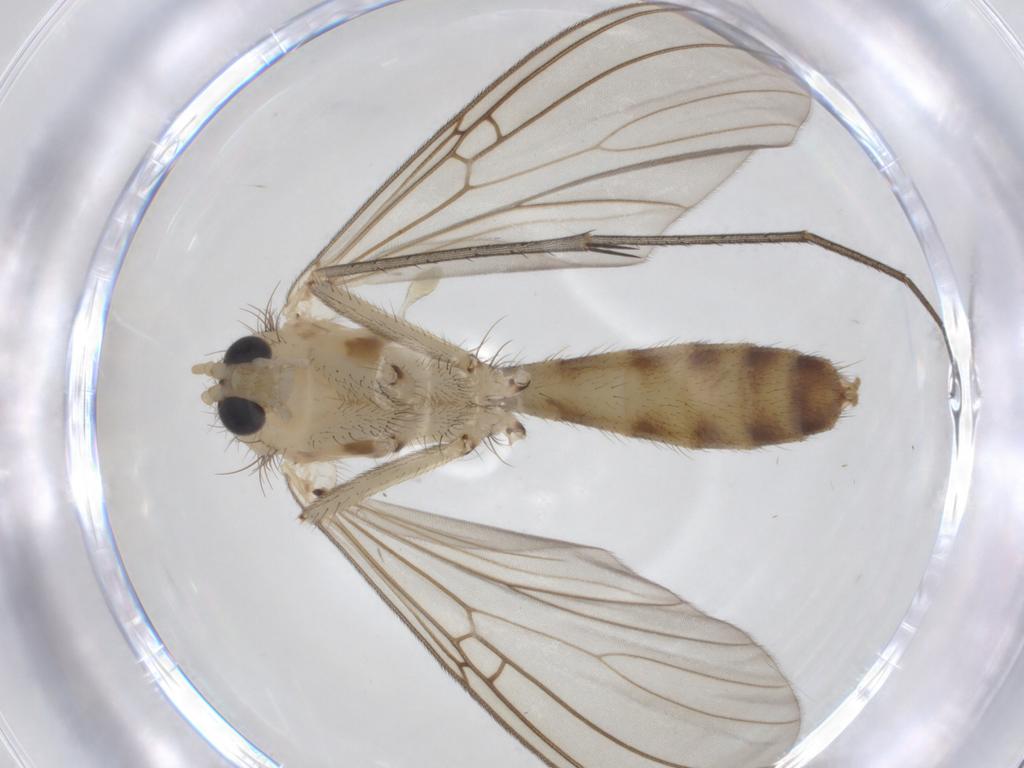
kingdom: Animalia
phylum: Arthropoda
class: Insecta
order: Diptera
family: Mycetophilidae
